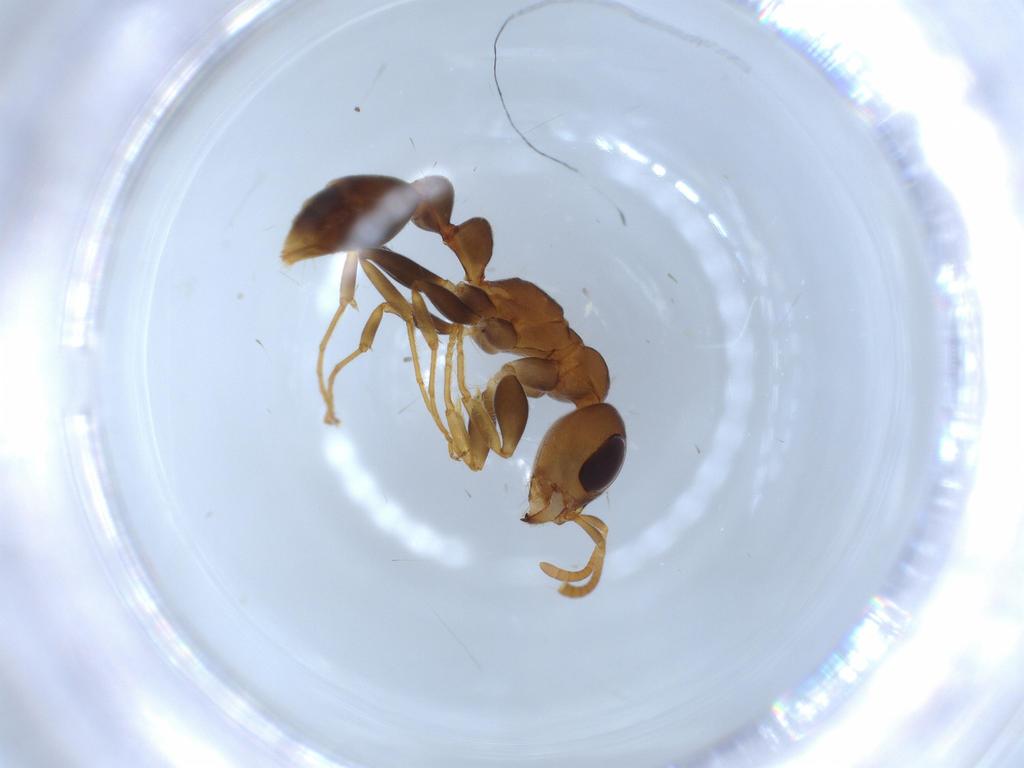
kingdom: Animalia
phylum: Arthropoda
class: Insecta
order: Hymenoptera
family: Formicidae
